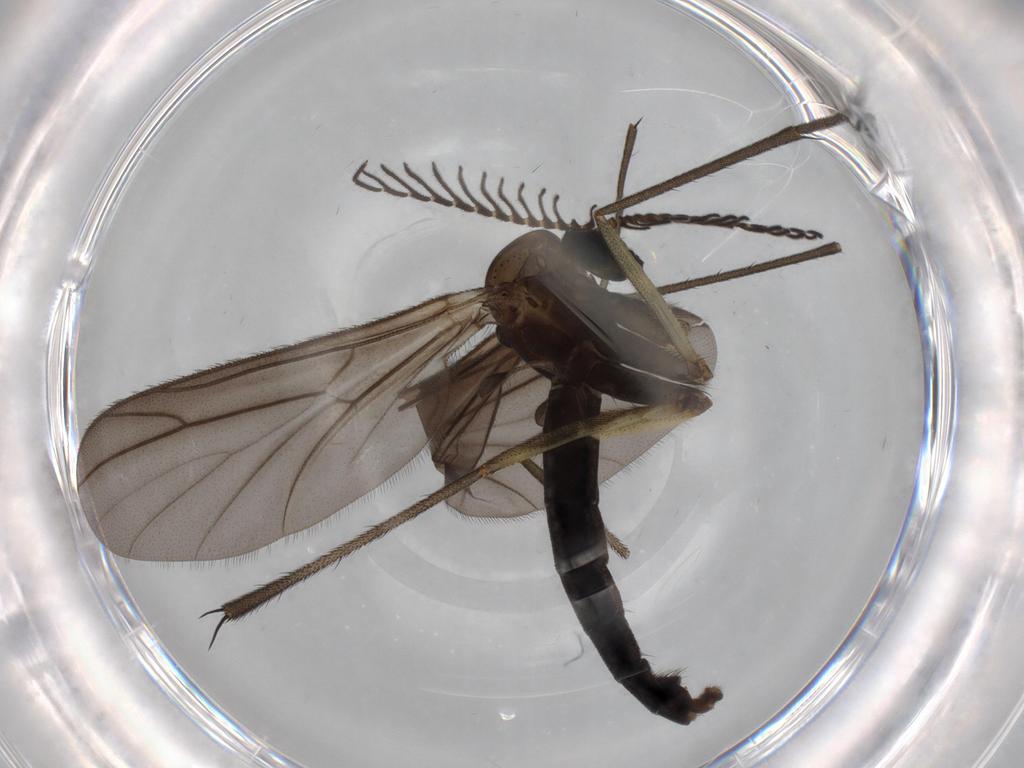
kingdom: Animalia
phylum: Arthropoda
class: Insecta
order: Diptera
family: Ditomyiidae
